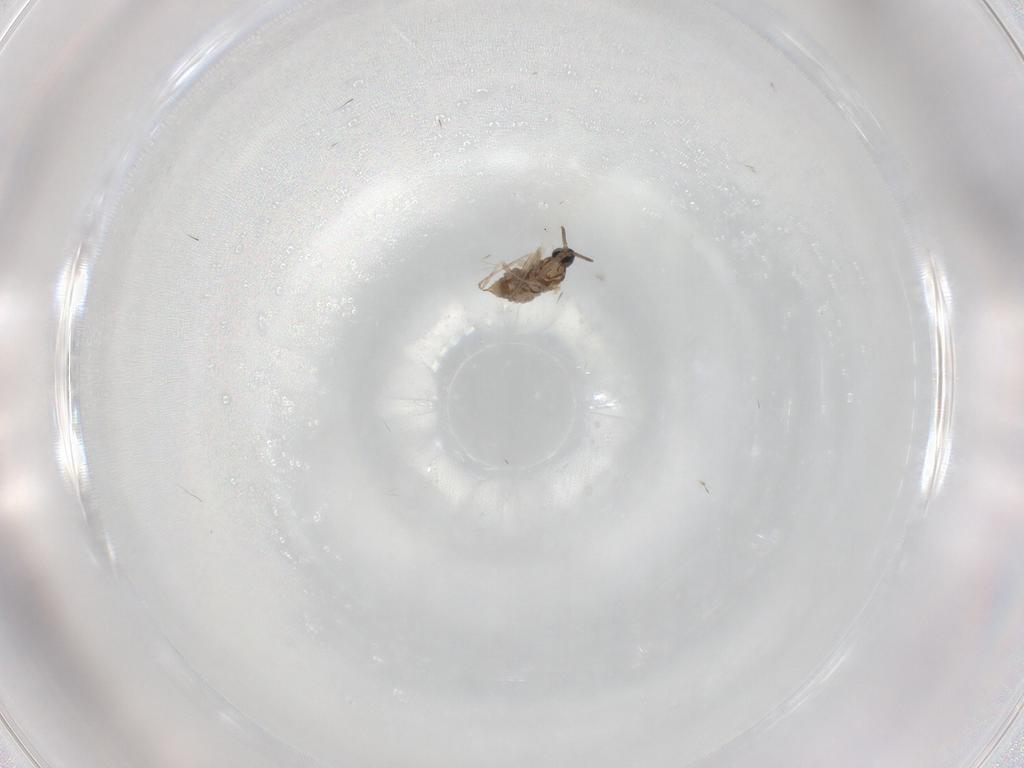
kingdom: Animalia
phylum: Arthropoda
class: Insecta
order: Diptera
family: Cecidomyiidae
